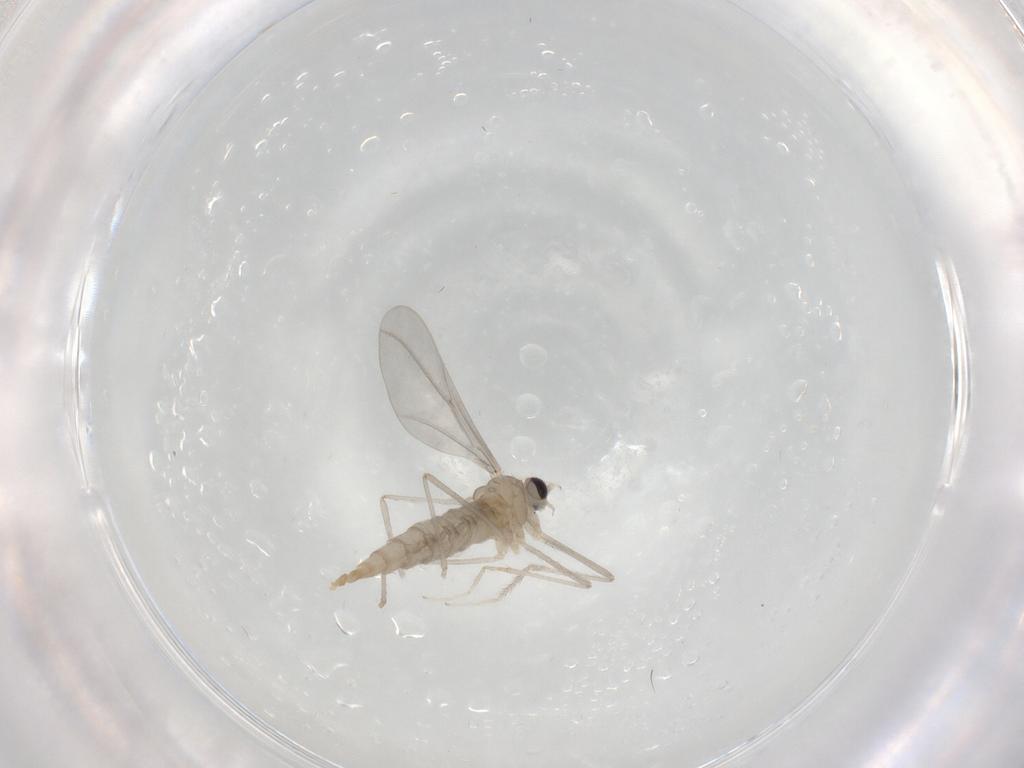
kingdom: Animalia
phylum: Arthropoda
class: Insecta
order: Diptera
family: Cecidomyiidae
